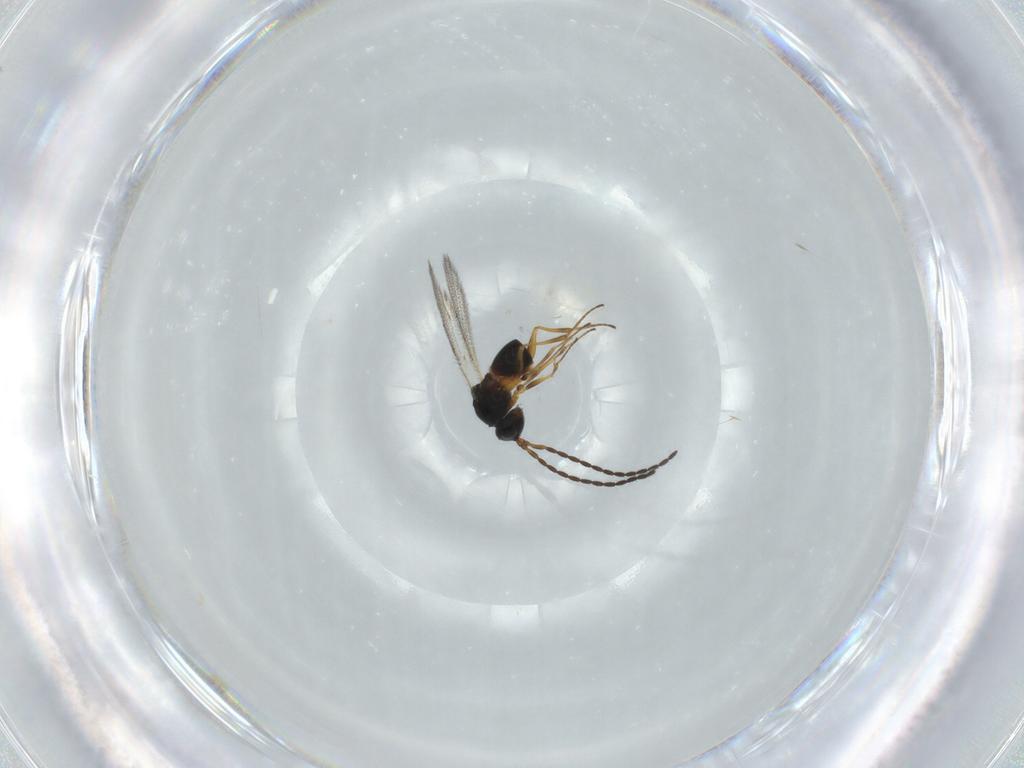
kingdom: Animalia
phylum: Arthropoda
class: Insecta
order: Hymenoptera
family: Figitidae
